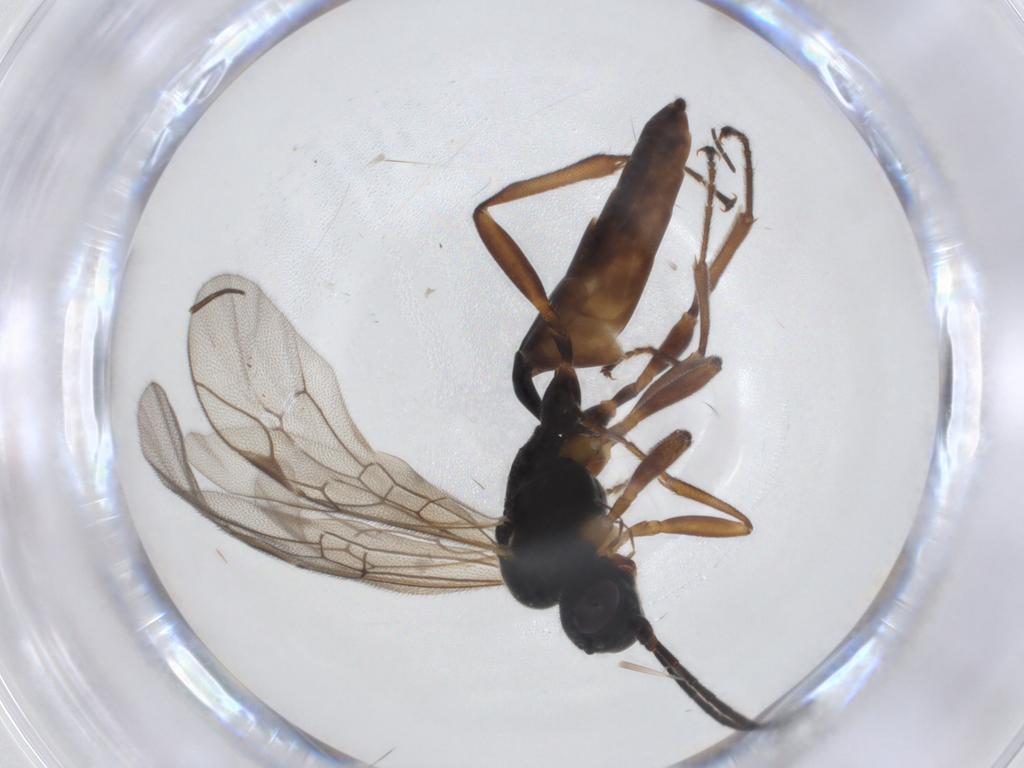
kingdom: Animalia
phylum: Arthropoda
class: Insecta
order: Hymenoptera
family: Ichneumonidae
